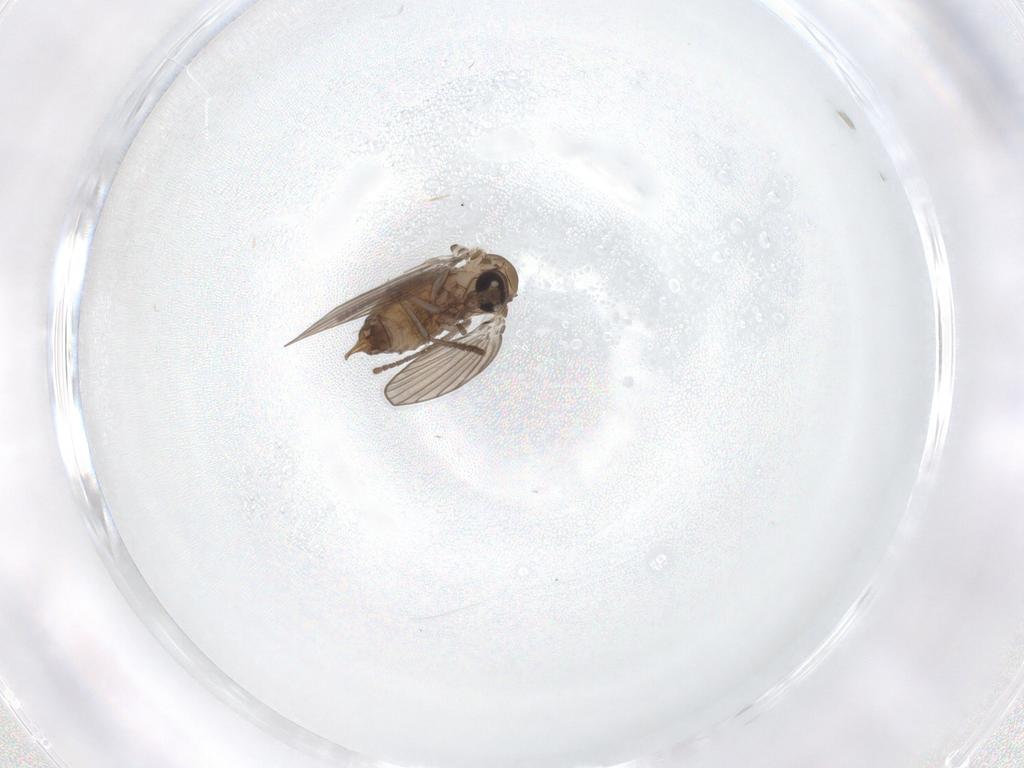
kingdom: Animalia
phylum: Arthropoda
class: Insecta
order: Diptera
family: Psychodidae
